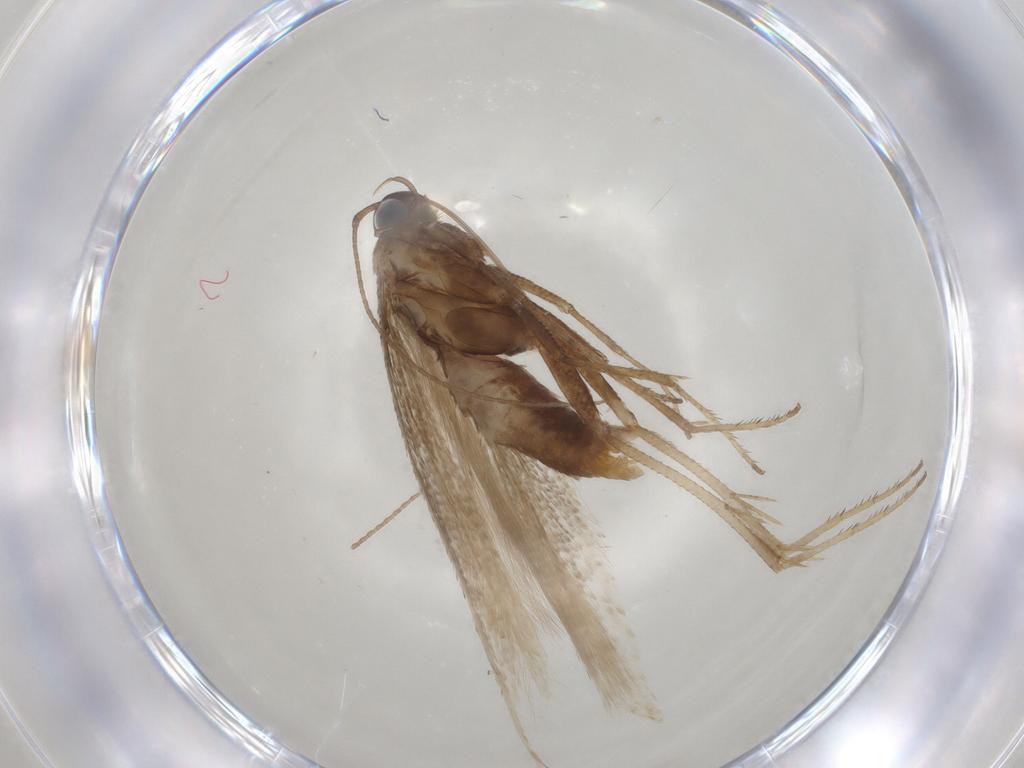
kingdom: Animalia
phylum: Arthropoda
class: Insecta
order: Lepidoptera
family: Gelechiidae
